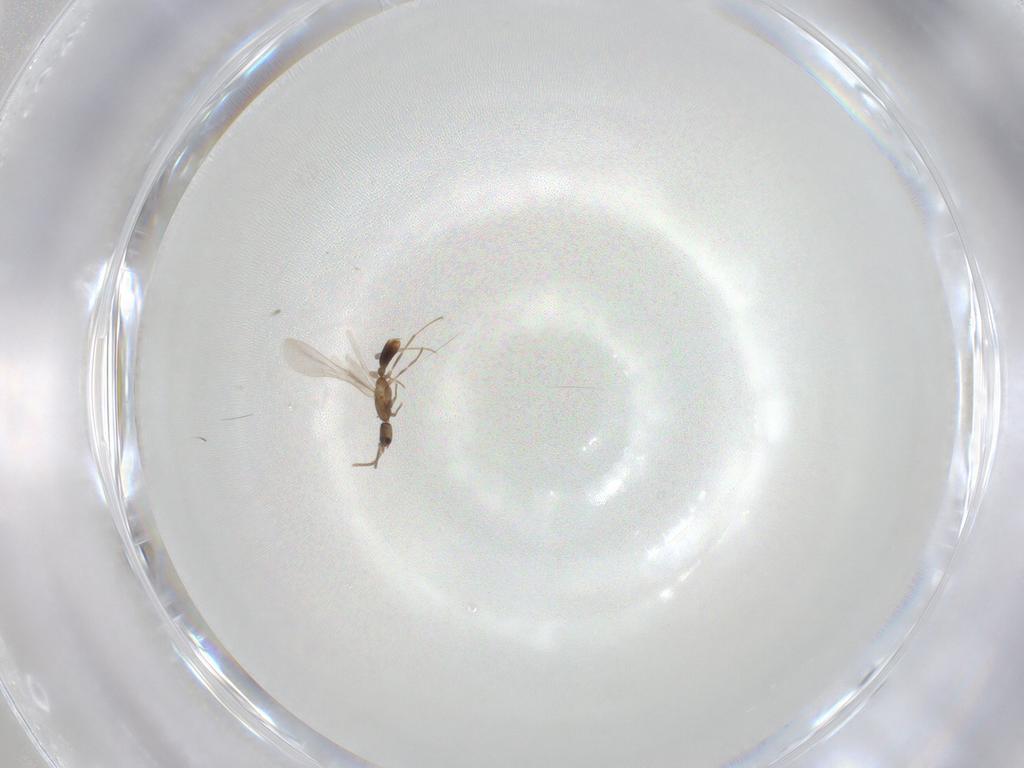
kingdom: Animalia
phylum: Arthropoda
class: Insecta
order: Hymenoptera
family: Formicidae
